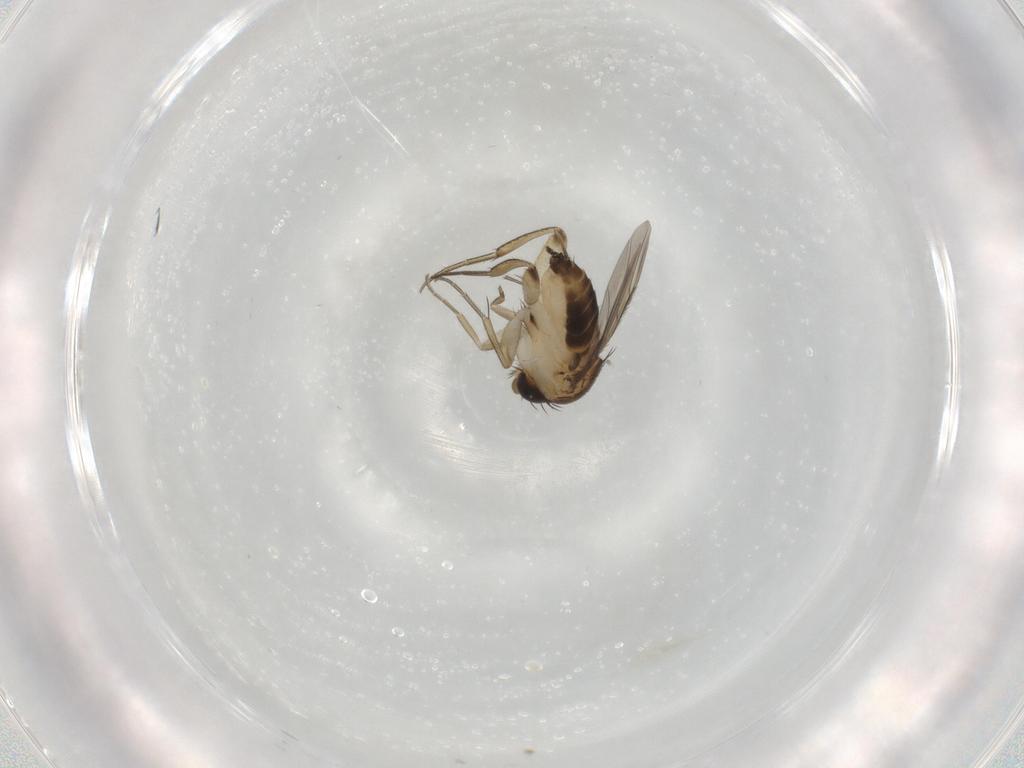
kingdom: Animalia
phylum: Arthropoda
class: Insecta
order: Diptera
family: Phoridae
